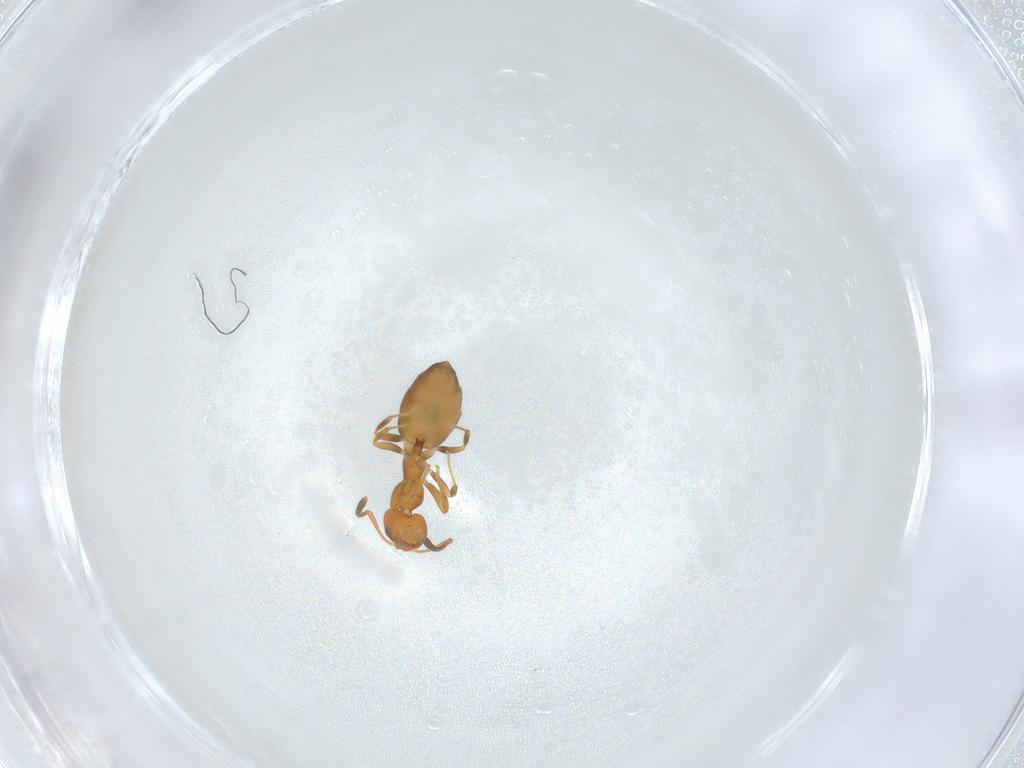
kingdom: Animalia
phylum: Arthropoda
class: Insecta
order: Hymenoptera
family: Formicidae
